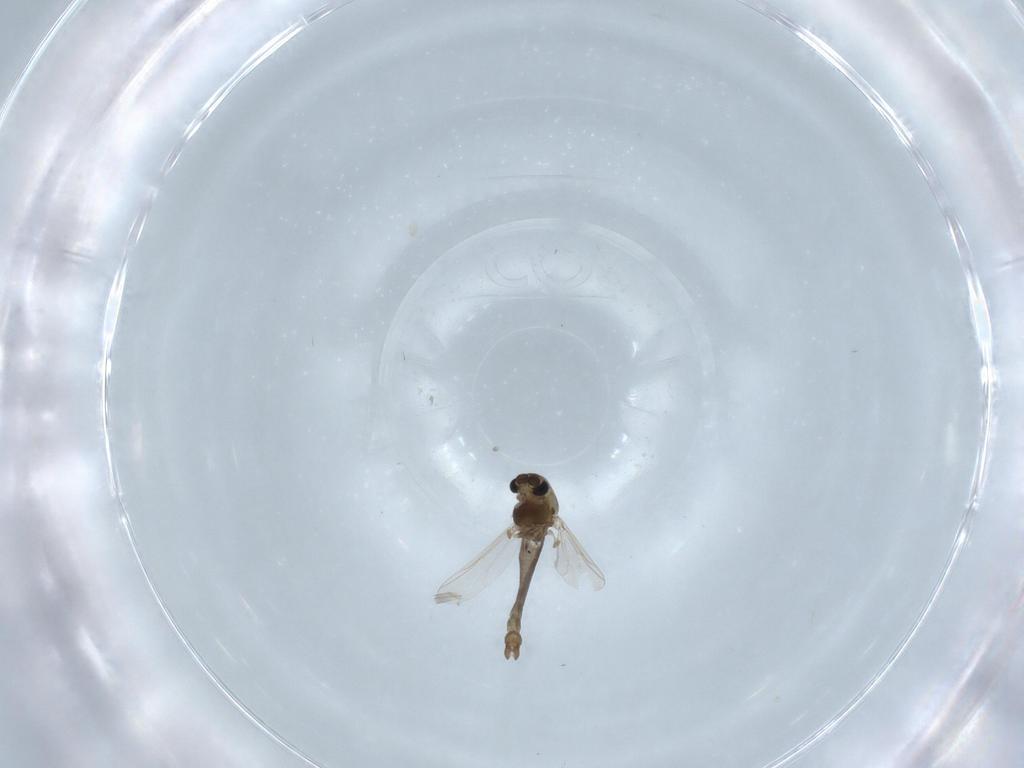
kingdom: Animalia
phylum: Arthropoda
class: Insecta
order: Diptera
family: Chironomidae
